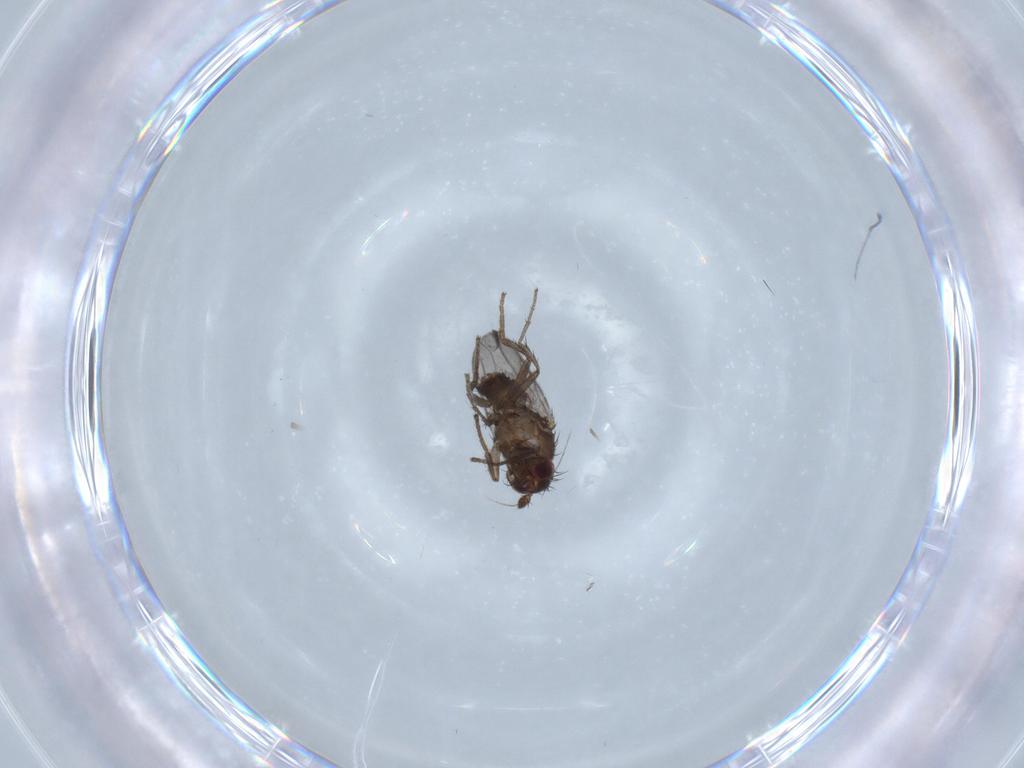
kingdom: Animalia
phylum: Arthropoda
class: Insecta
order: Diptera
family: Sphaeroceridae
